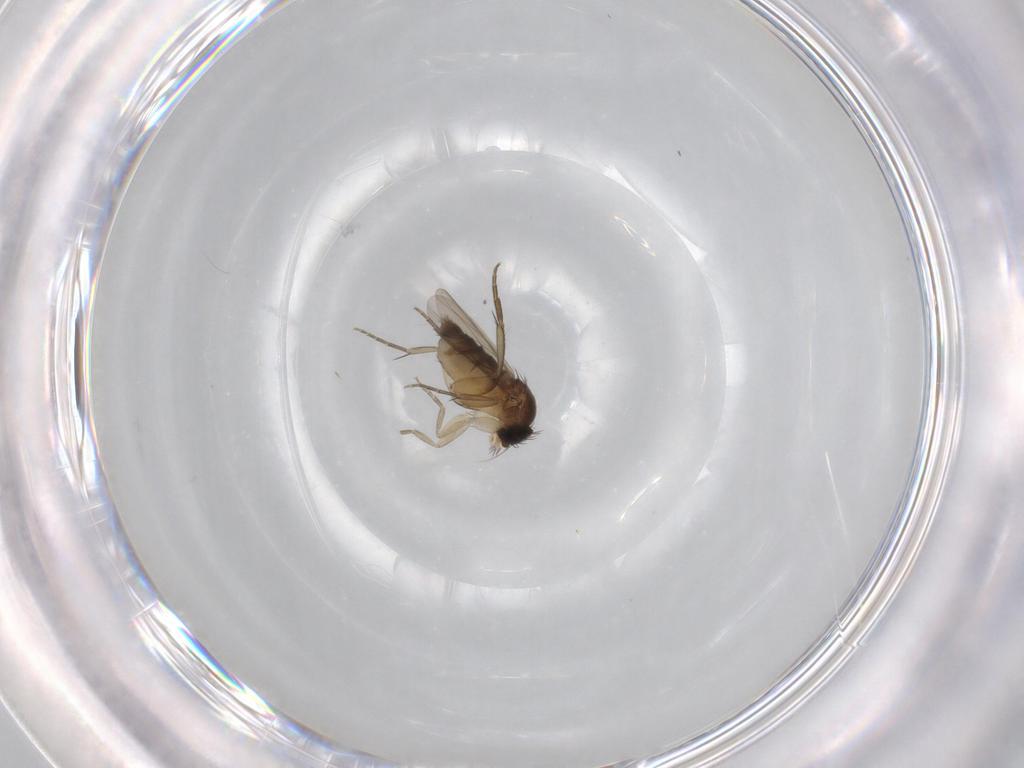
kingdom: Animalia
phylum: Arthropoda
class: Insecta
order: Diptera
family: Phoridae
